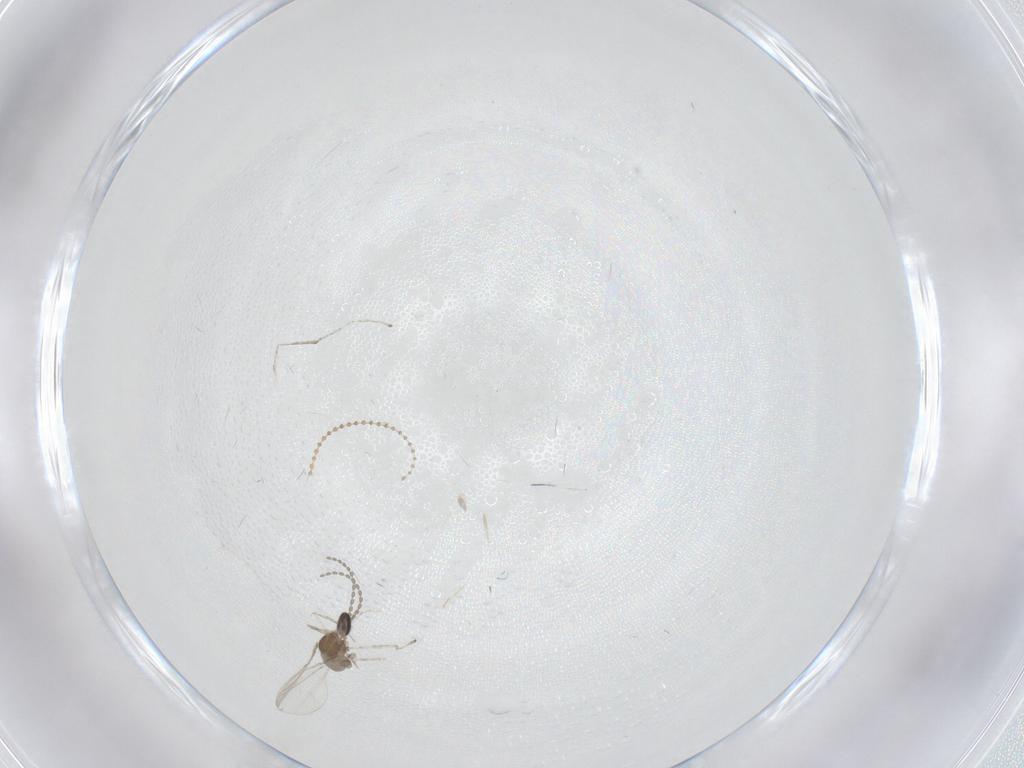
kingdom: Animalia
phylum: Arthropoda
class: Insecta
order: Diptera
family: Cecidomyiidae
